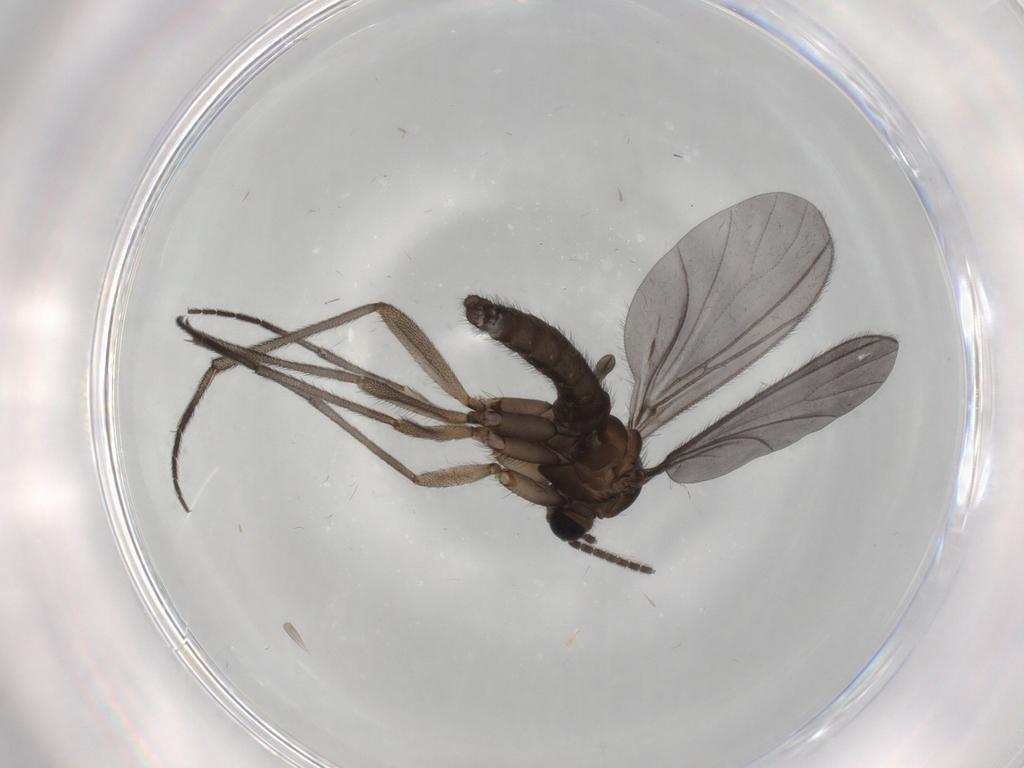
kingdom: Animalia
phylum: Arthropoda
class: Insecta
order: Diptera
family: Sciaridae
